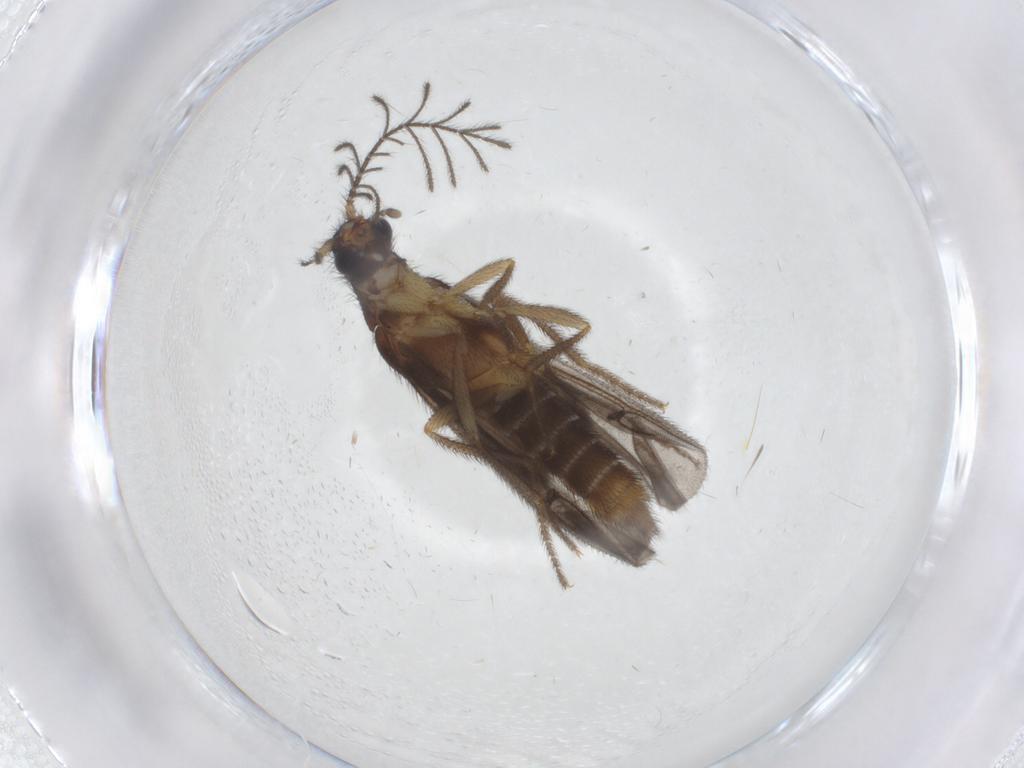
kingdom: Animalia
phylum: Arthropoda
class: Insecta
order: Coleoptera
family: Phengodidae
